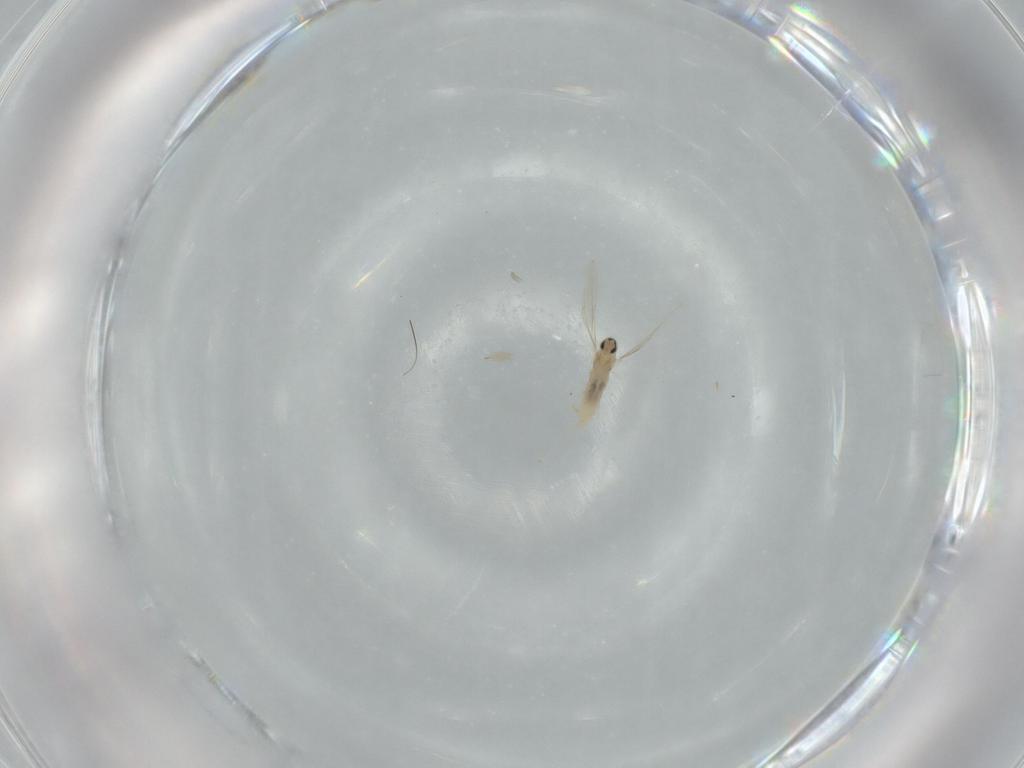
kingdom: Animalia
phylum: Arthropoda
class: Insecta
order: Diptera
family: Cecidomyiidae
